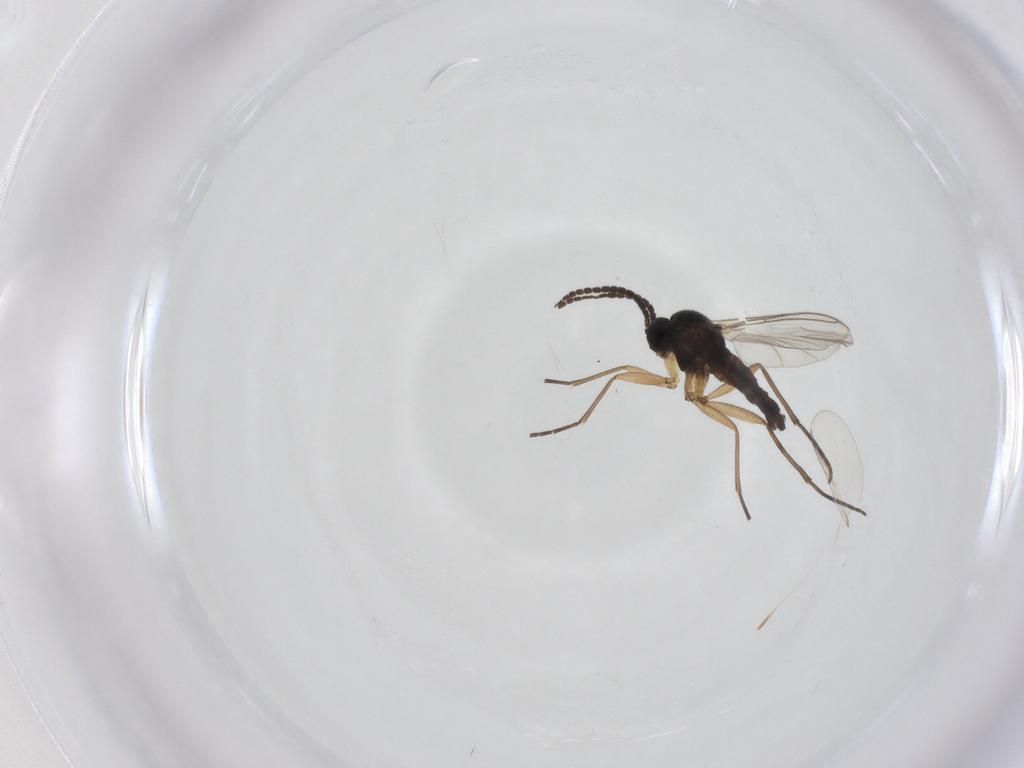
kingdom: Animalia
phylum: Arthropoda
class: Insecta
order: Diptera
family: Sciaridae
